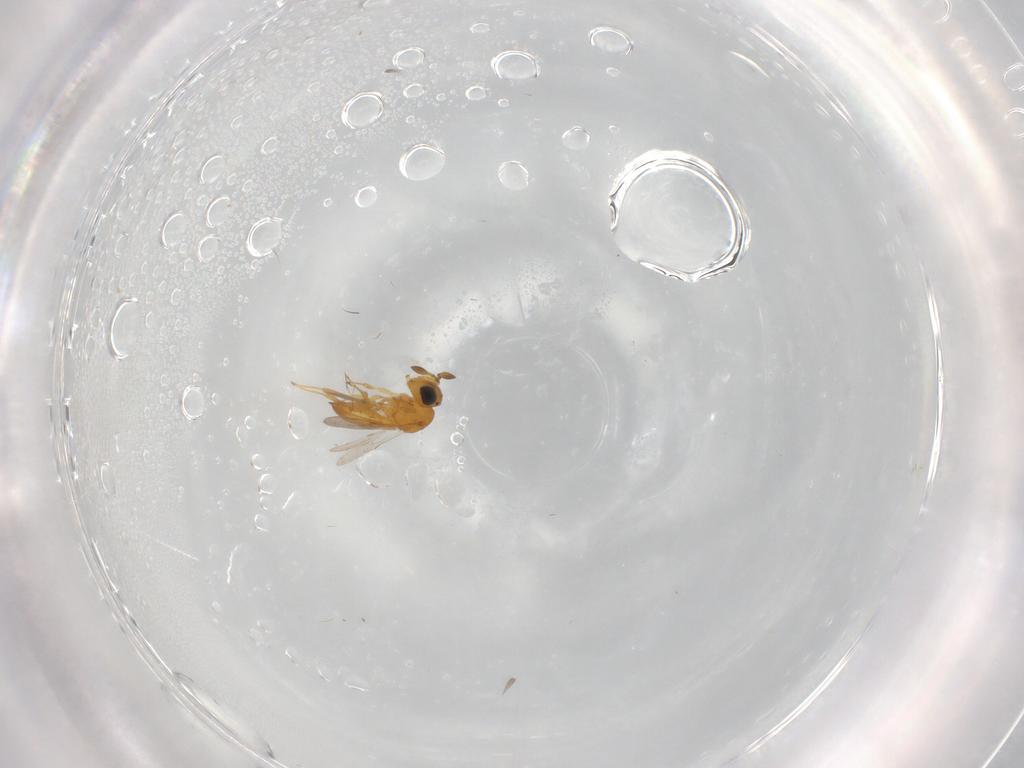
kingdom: Animalia
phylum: Arthropoda
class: Insecta
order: Hymenoptera
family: Scelionidae
